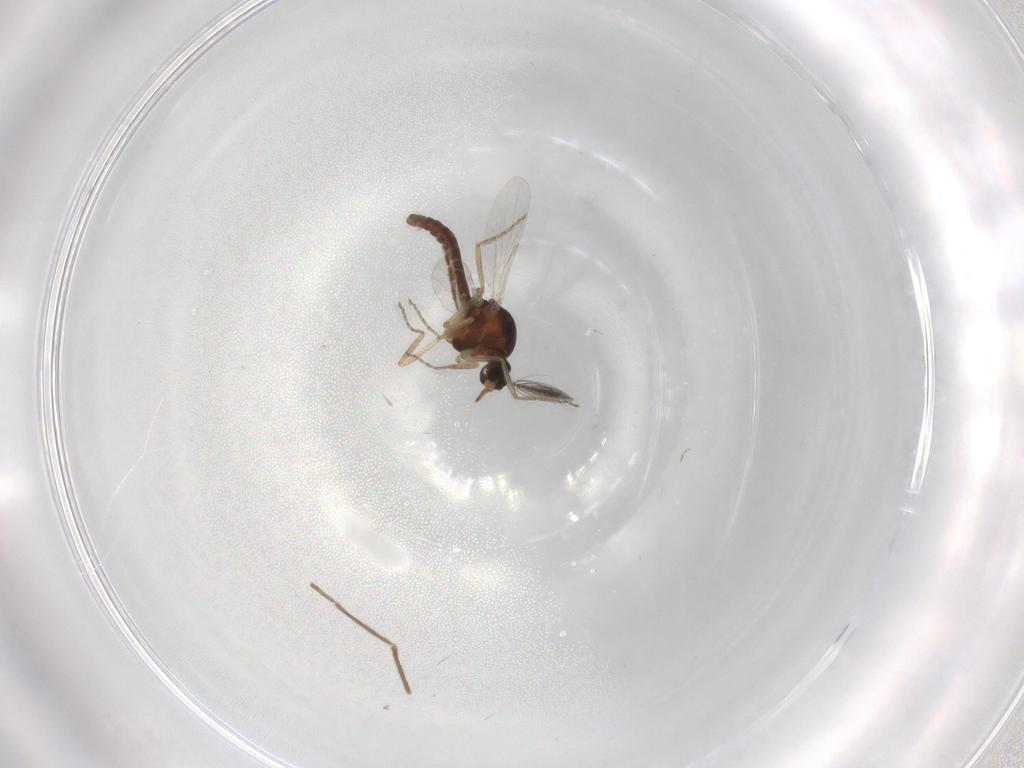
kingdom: Animalia
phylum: Arthropoda
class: Insecta
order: Diptera
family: Ceratopogonidae
